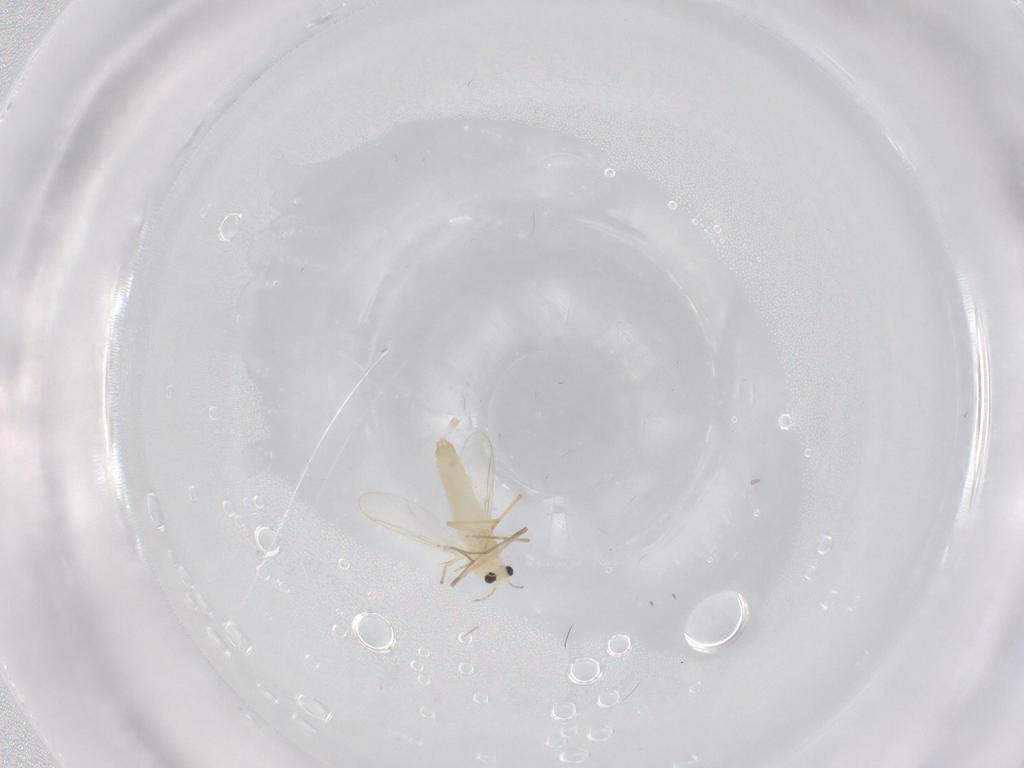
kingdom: Animalia
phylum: Arthropoda
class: Insecta
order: Diptera
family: Chironomidae
